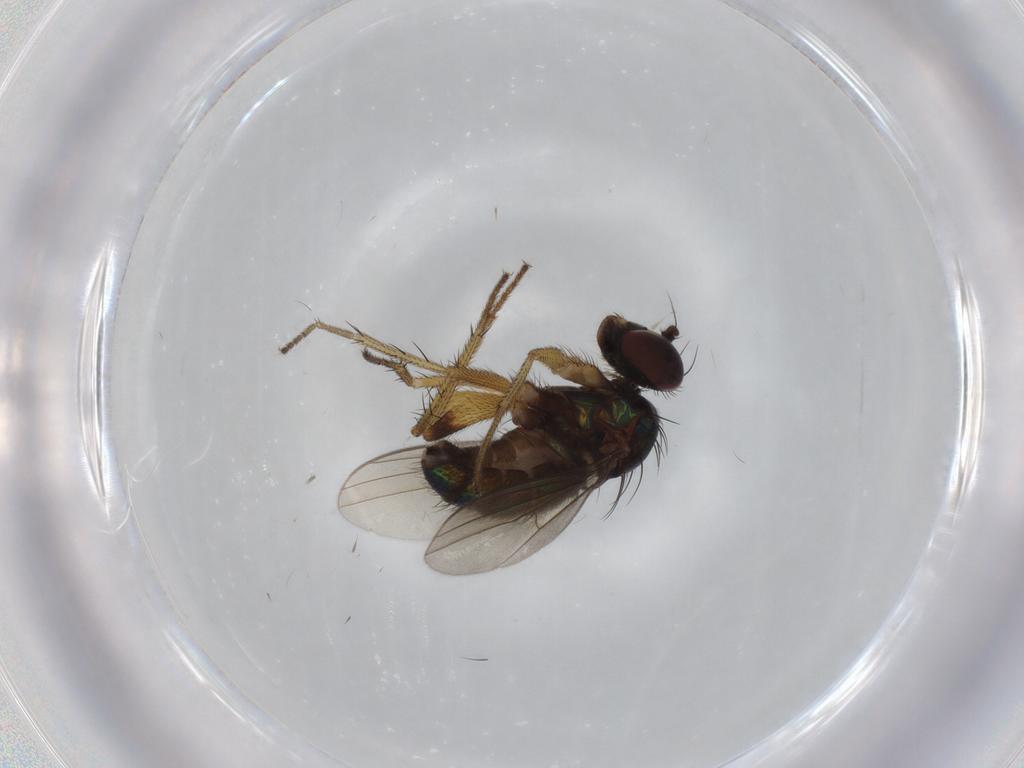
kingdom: Animalia
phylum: Arthropoda
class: Insecta
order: Diptera
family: Dolichopodidae
